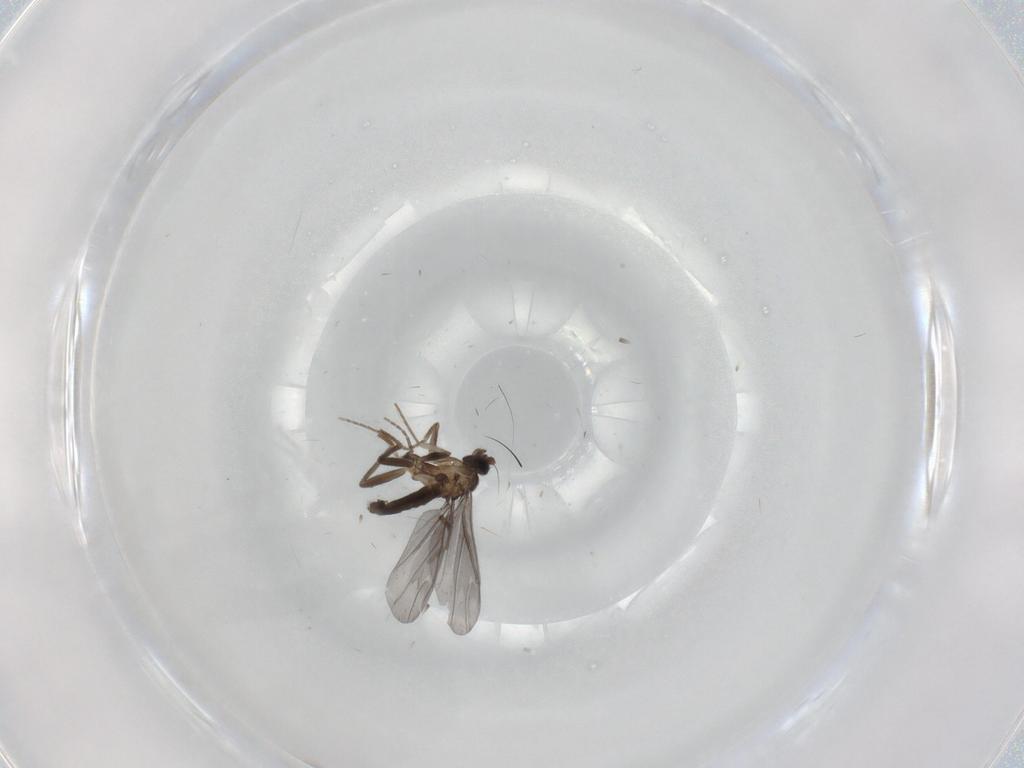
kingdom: Animalia
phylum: Arthropoda
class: Insecta
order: Diptera
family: Cecidomyiidae
